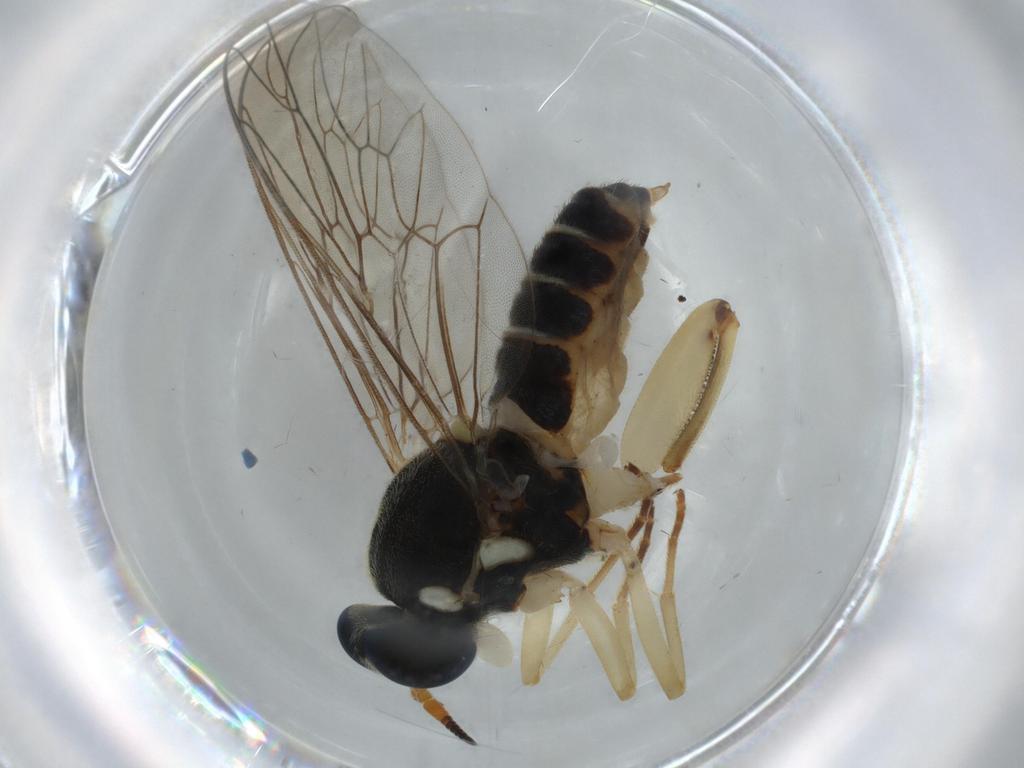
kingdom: Animalia
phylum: Arthropoda
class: Insecta
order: Diptera
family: Xylomyidae
